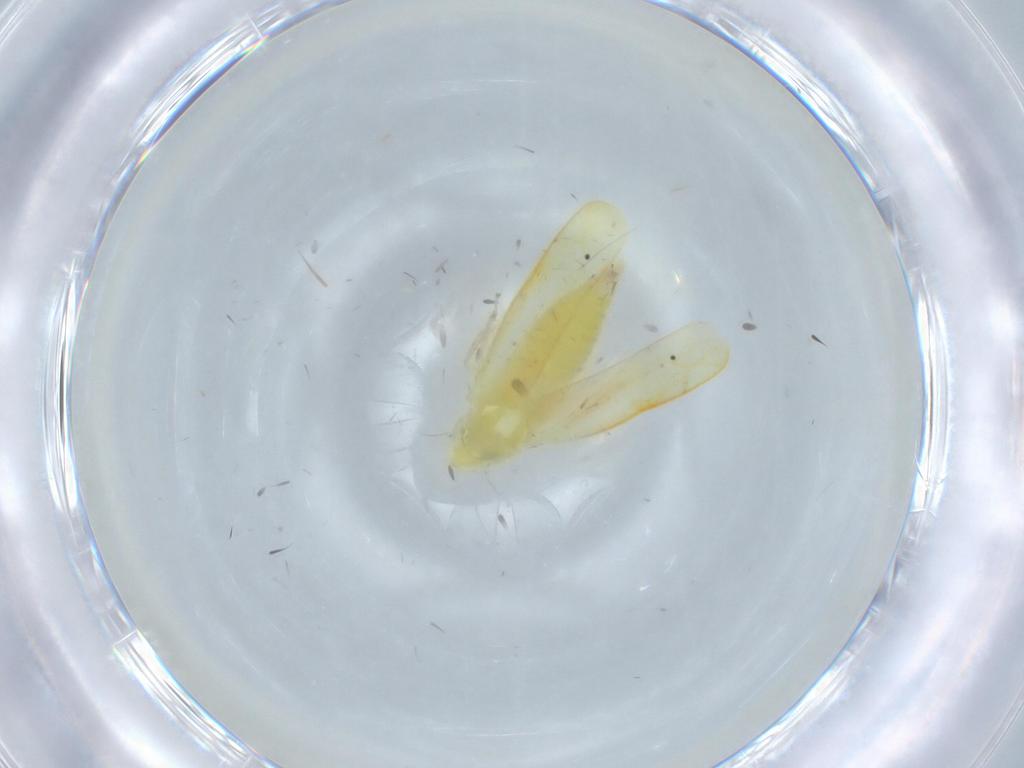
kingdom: Animalia
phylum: Arthropoda
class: Insecta
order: Hemiptera
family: Cicadellidae
